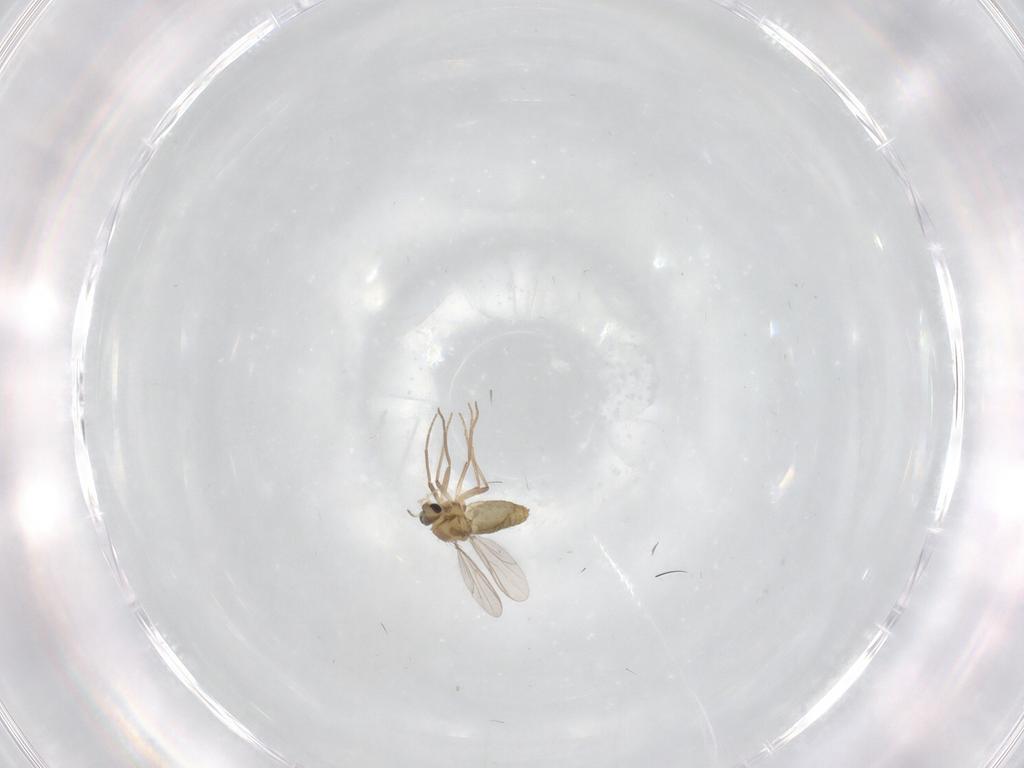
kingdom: Animalia
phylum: Arthropoda
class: Insecta
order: Diptera
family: Chironomidae
